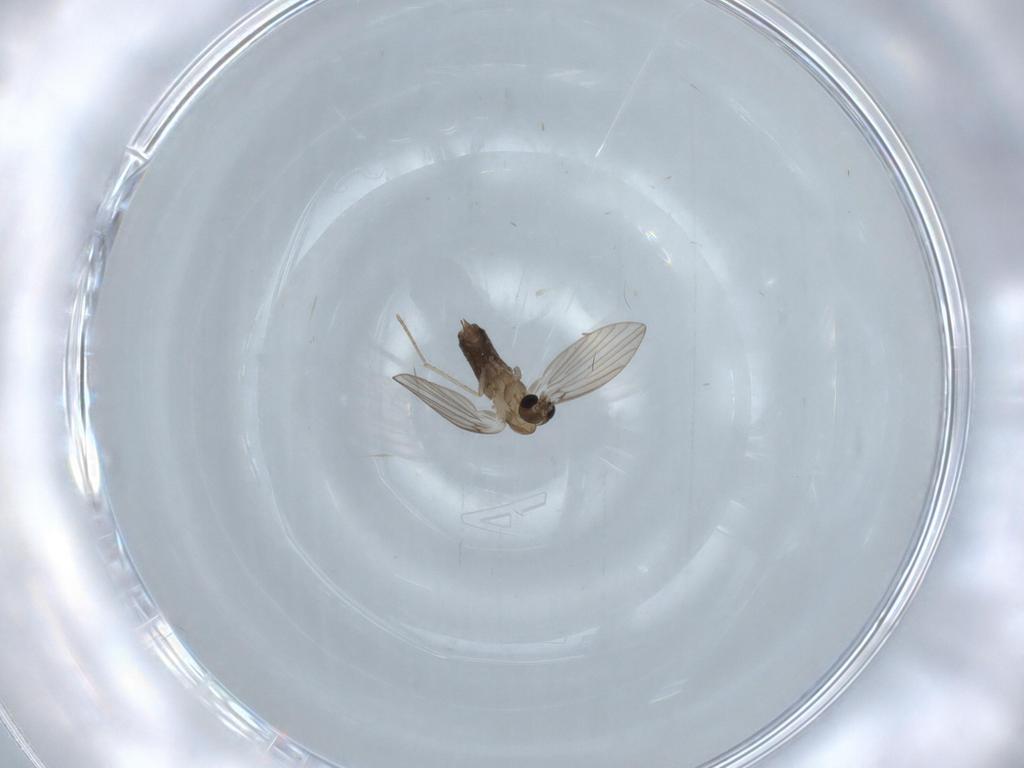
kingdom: Animalia
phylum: Arthropoda
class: Insecta
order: Diptera
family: Psychodidae
